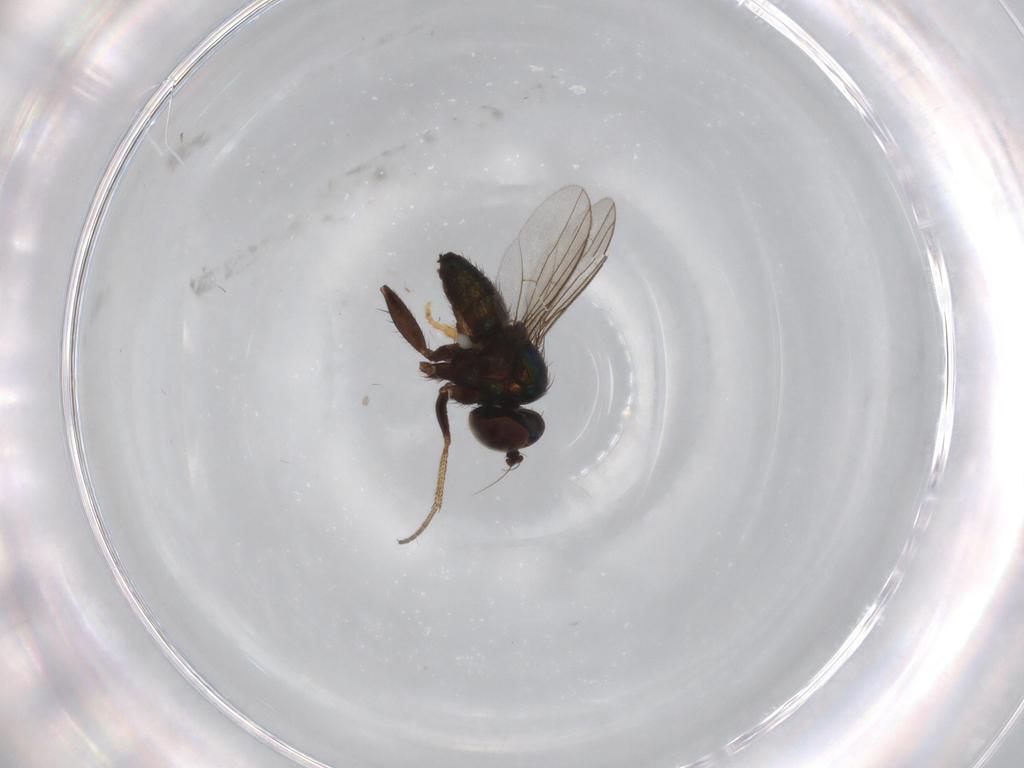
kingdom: Animalia
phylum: Arthropoda
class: Insecta
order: Diptera
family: Dolichopodidae
